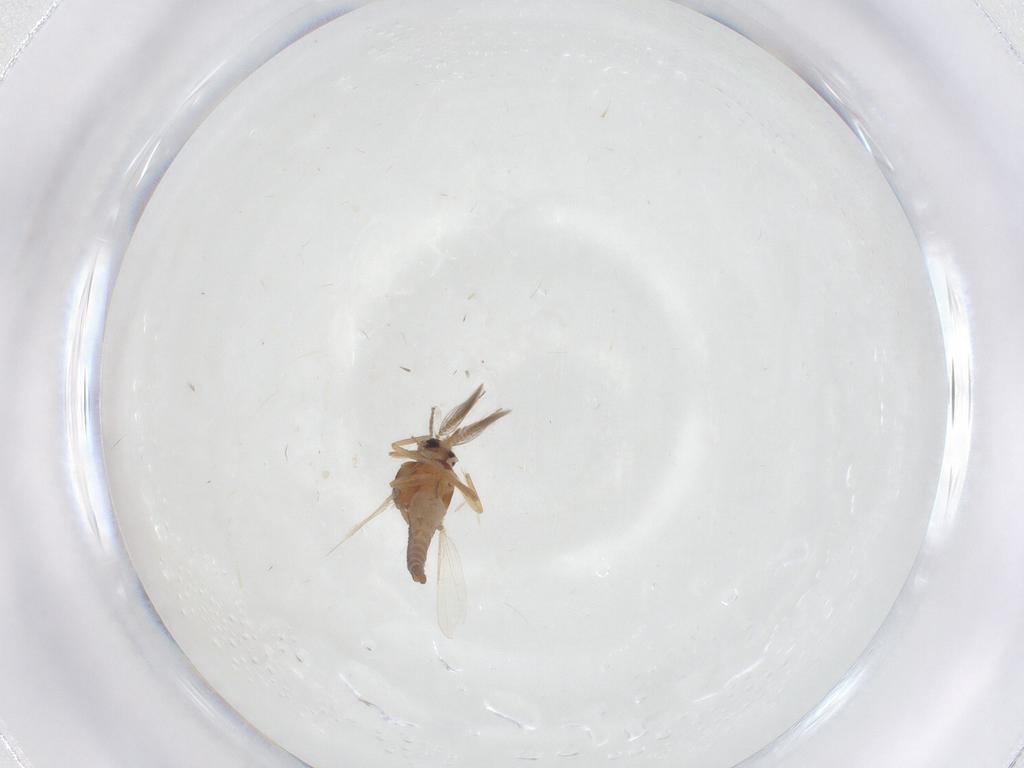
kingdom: Animalia
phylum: Arthropoda
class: Insecta
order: Diptera
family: Ceratopogonidae
